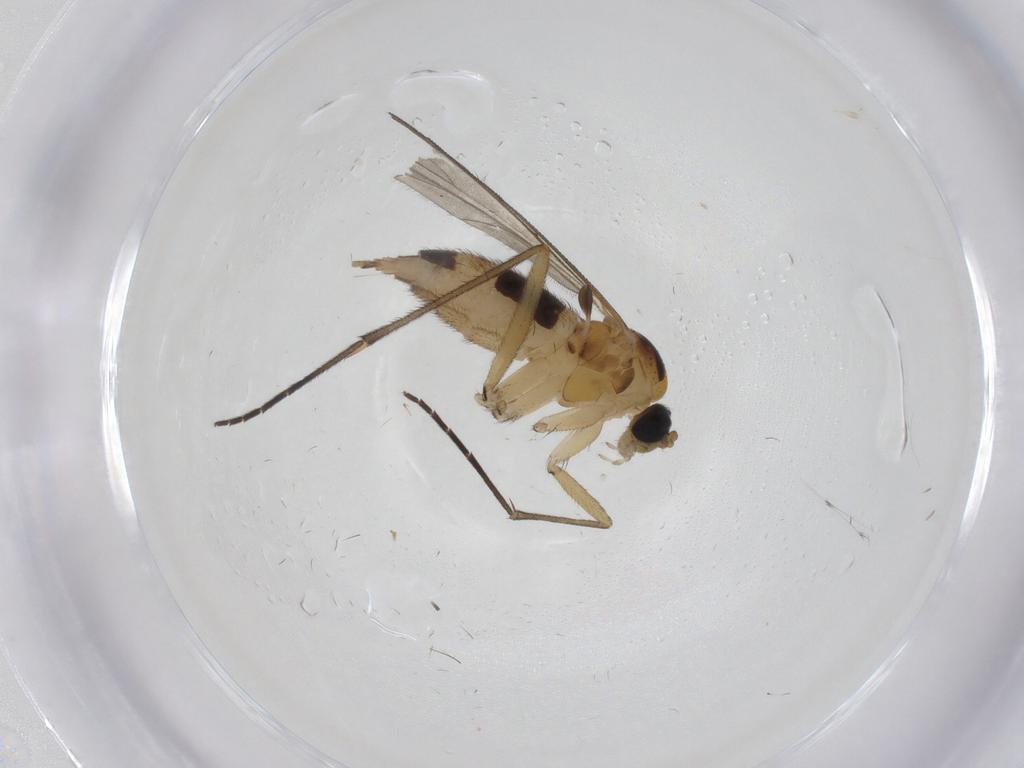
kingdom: Animalia
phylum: Arthropoda
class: Insecta
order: Diptera
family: Sciaridae
